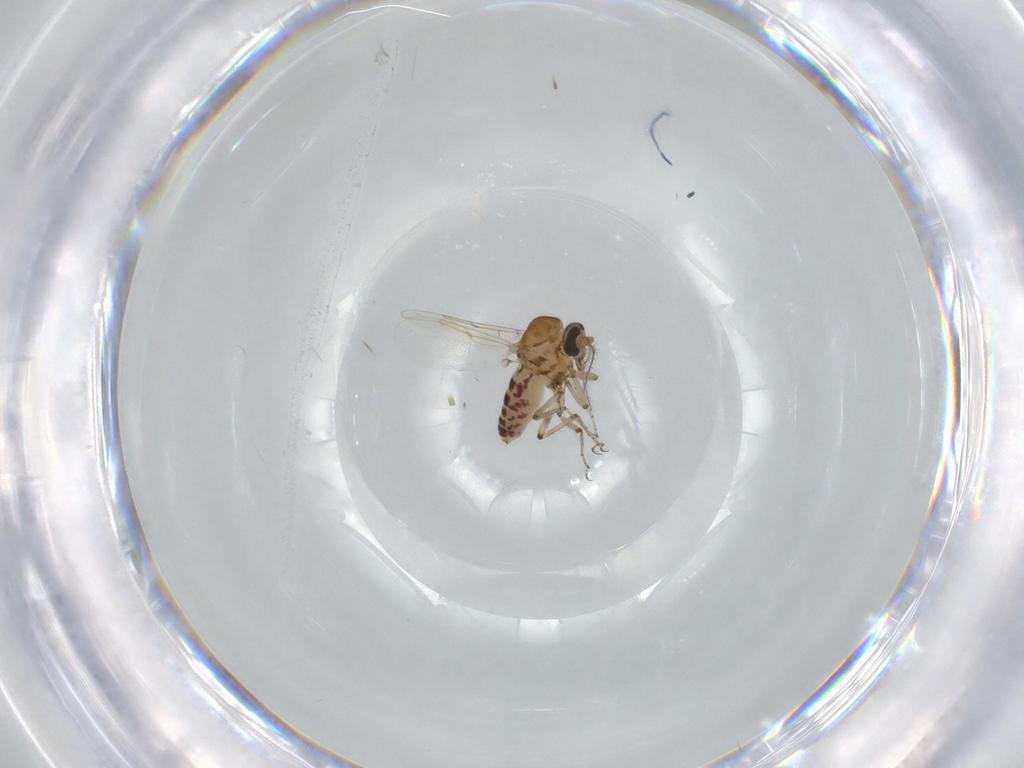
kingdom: Animalia
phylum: Arthropoda
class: Insecta
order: Diptera
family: Ceratopogonidae
